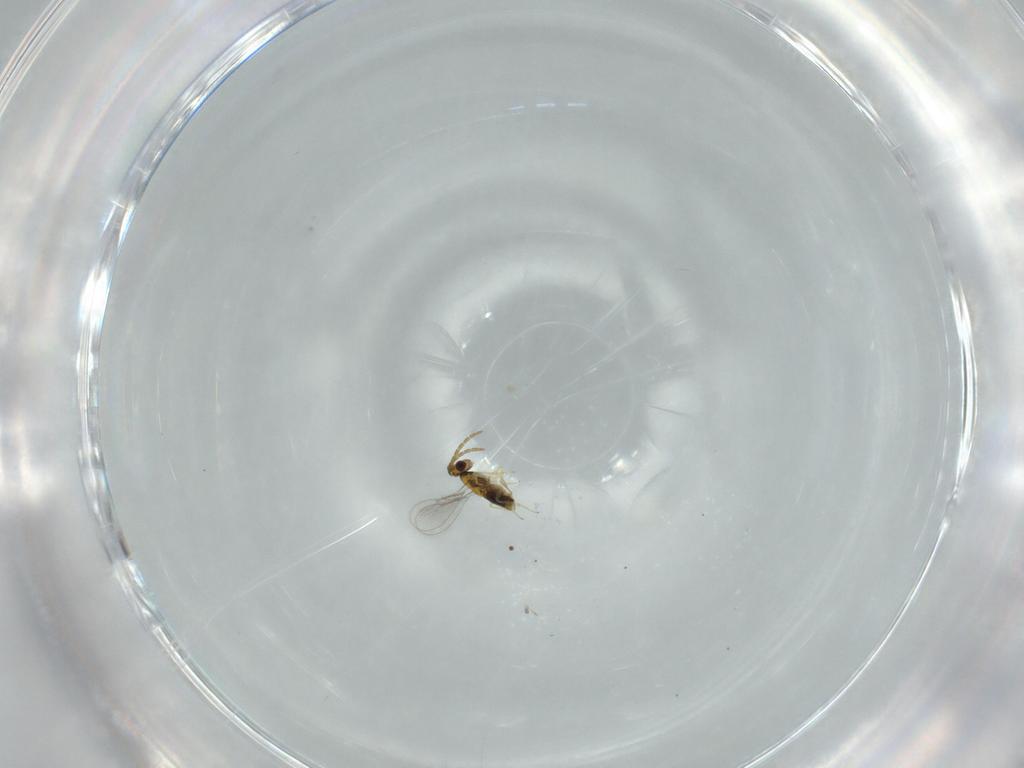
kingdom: Animalia
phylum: Arthropoda
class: Insecta
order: Hymenoptera
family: Aphelinidae
